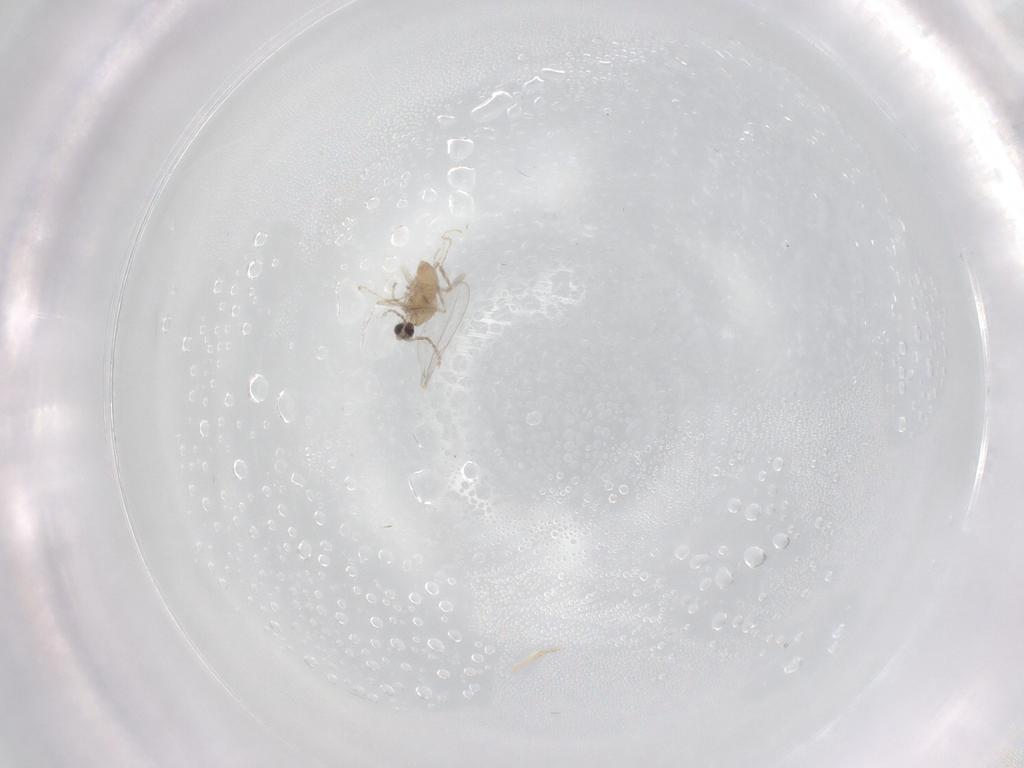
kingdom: Animalia
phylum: Arthropoda
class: Insecta
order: Diptera
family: Cecidomyiidae
